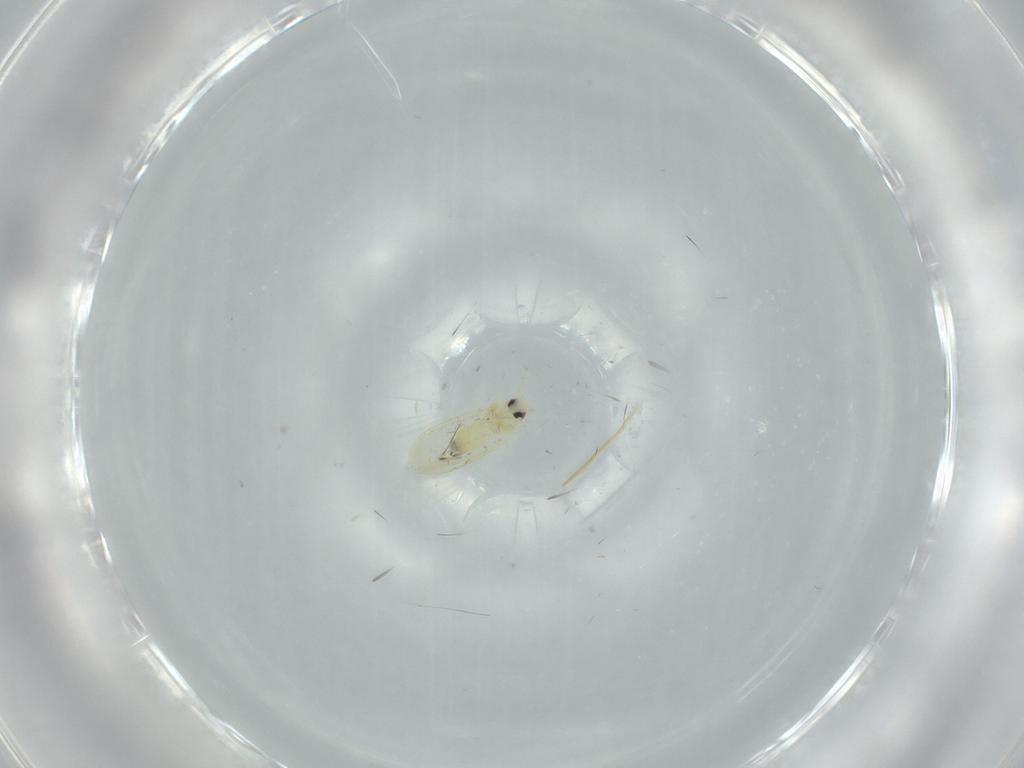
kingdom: Animalia
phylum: Arthropoda
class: Insecta
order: Hemiptera
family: Aleyrodidae
